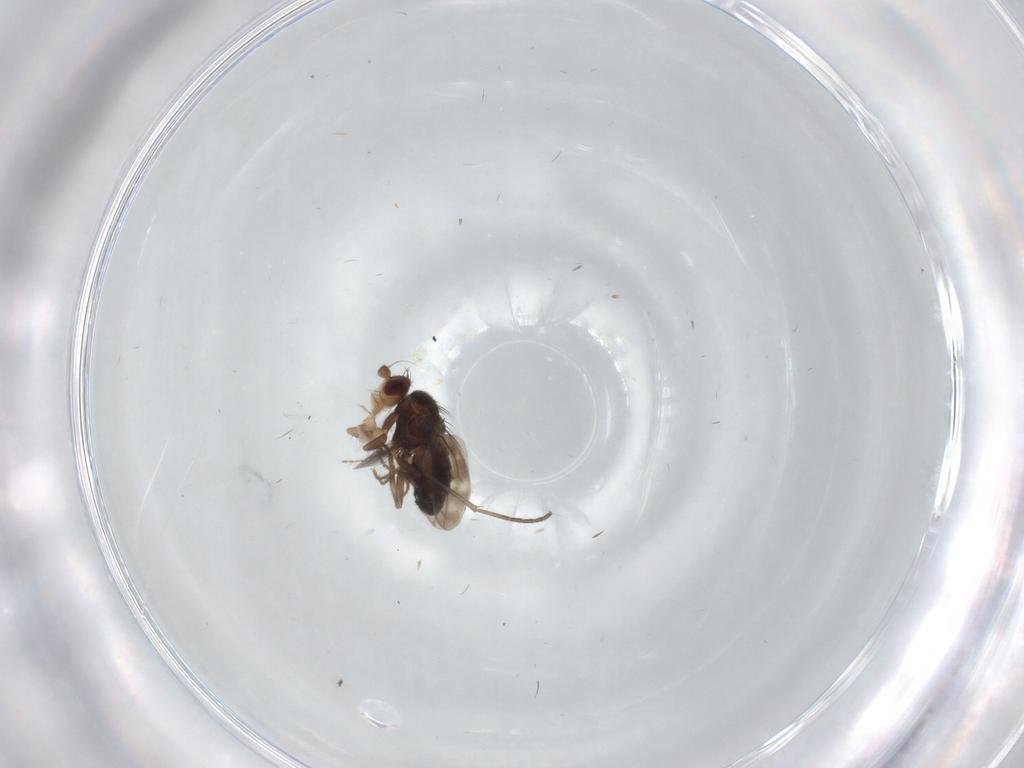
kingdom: Animalia
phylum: Arthropoda
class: Insecta
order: Diptera
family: Sphaeroceridae
